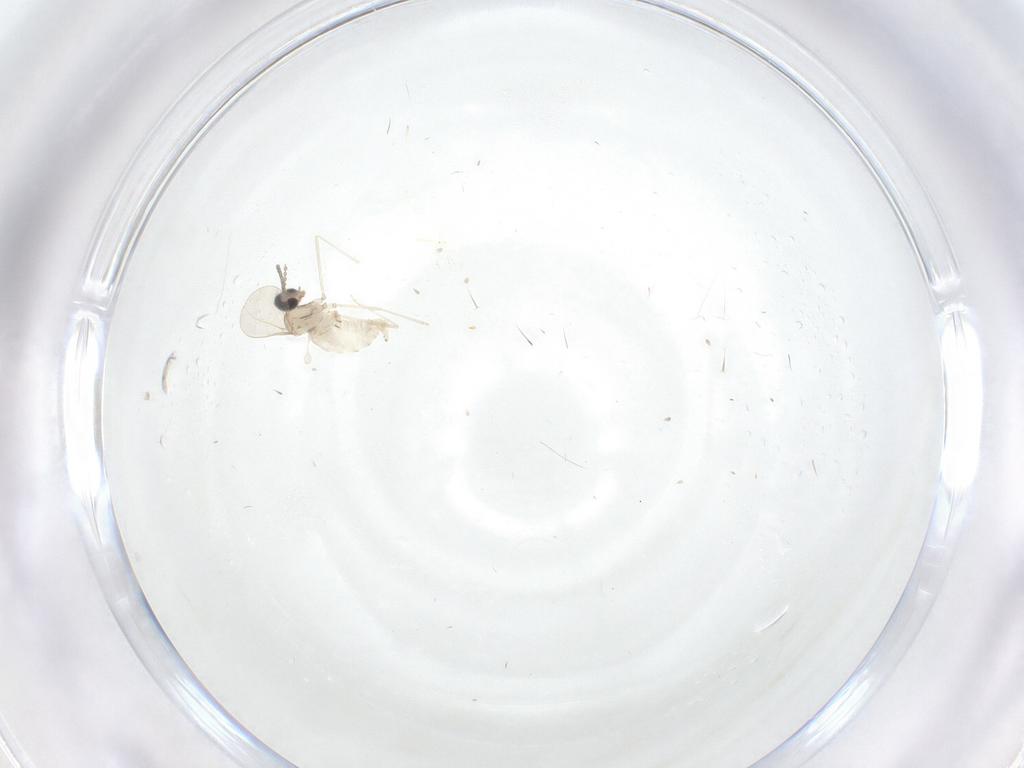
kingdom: Animalia
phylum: Arthropoda
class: Insecta
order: Diptera
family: Cecidomyiidae
